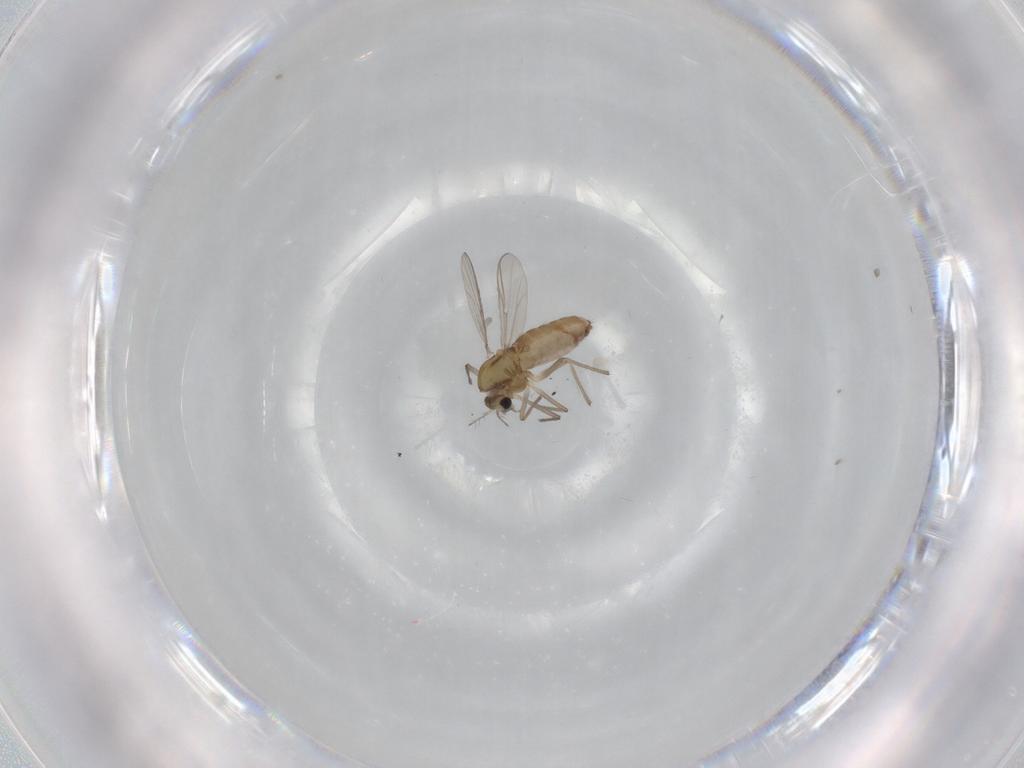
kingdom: Animalia
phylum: Arthropoda
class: Insecta
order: Diptera
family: Chironomidae
